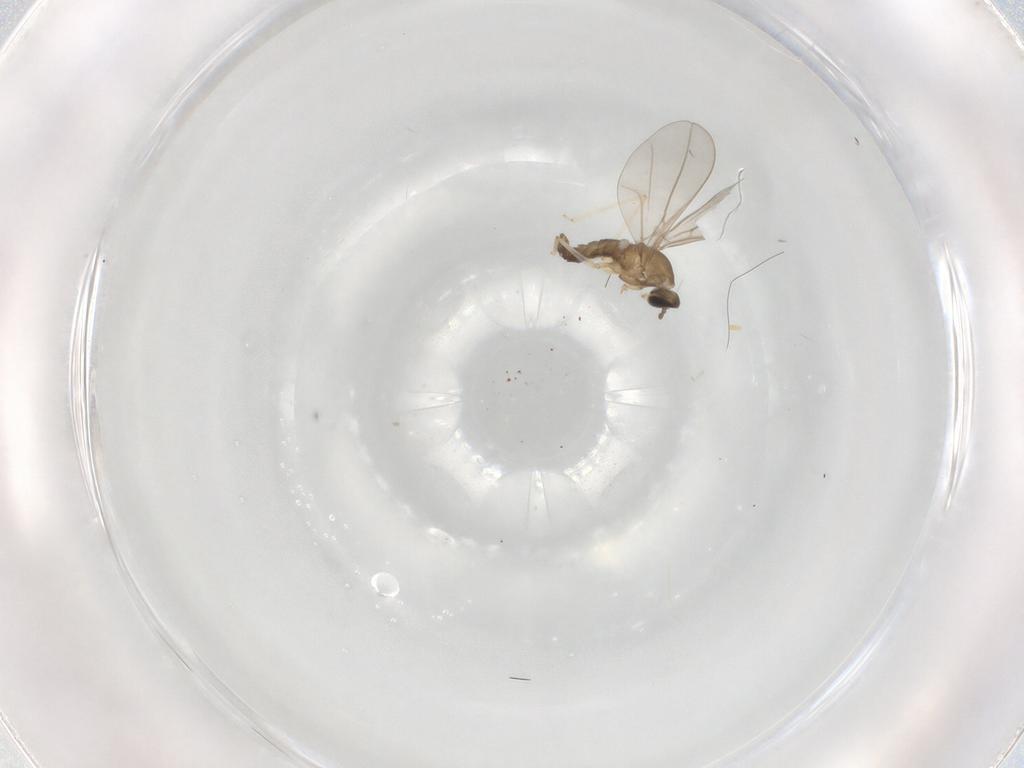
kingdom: Animalia
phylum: Arthropoda
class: Insecta
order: Diptera
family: Cecidomyiidae
